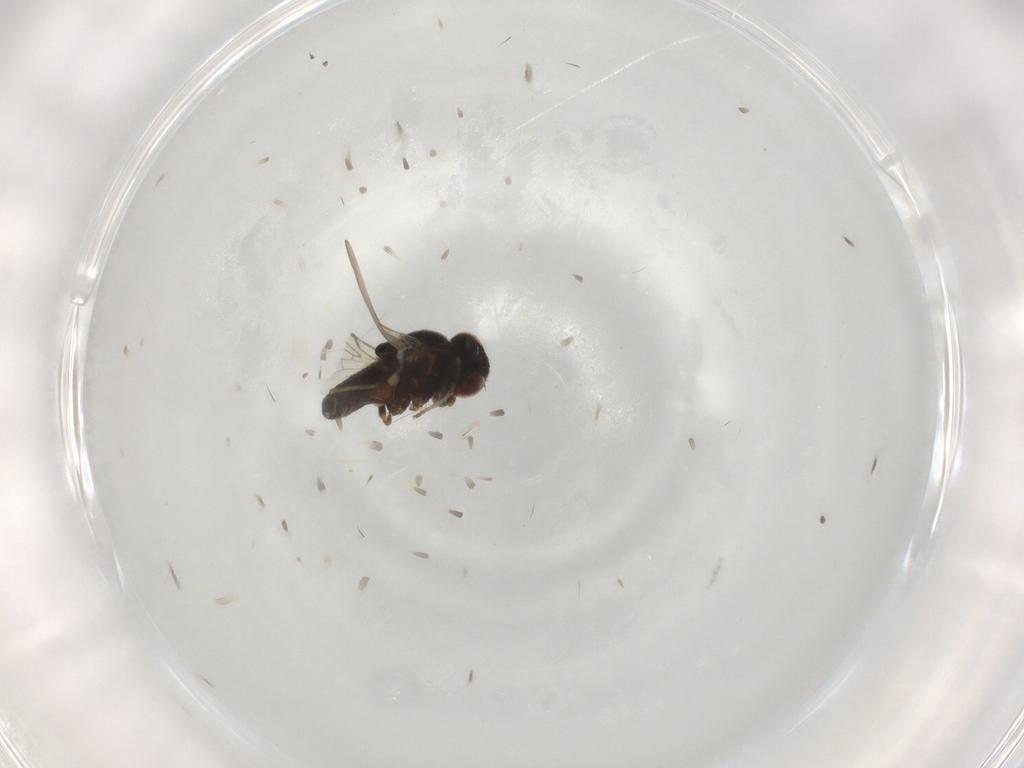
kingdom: Animalia
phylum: Arthropoda
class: Insecta
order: Diptera
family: Chloropidae
